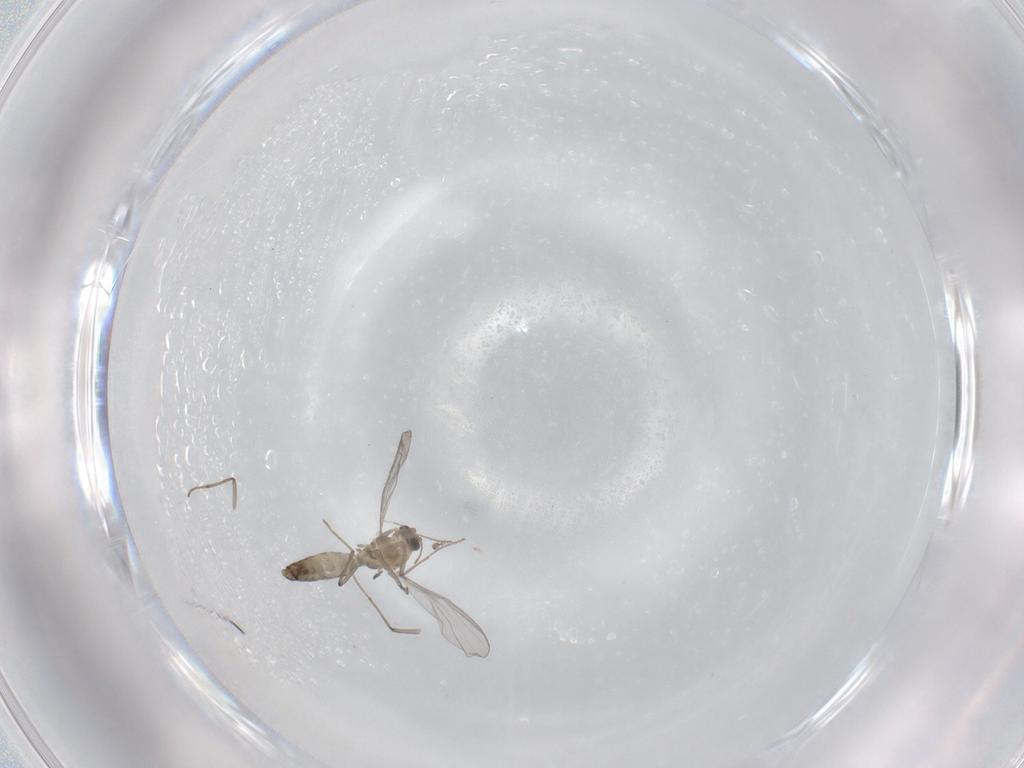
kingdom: Animalia
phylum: Arthropoda
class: Insecta
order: Diptera
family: Chironomidae
